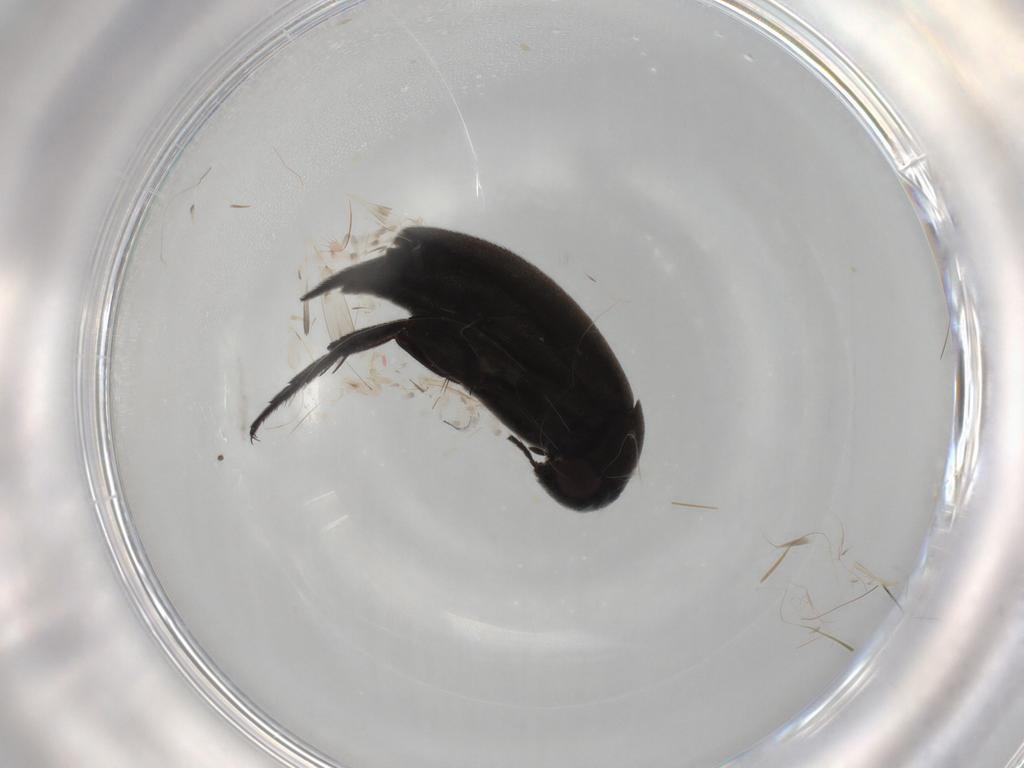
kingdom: Animalia
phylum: Arthropoda
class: Insecta
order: Coleoptera
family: Staphylinidae
